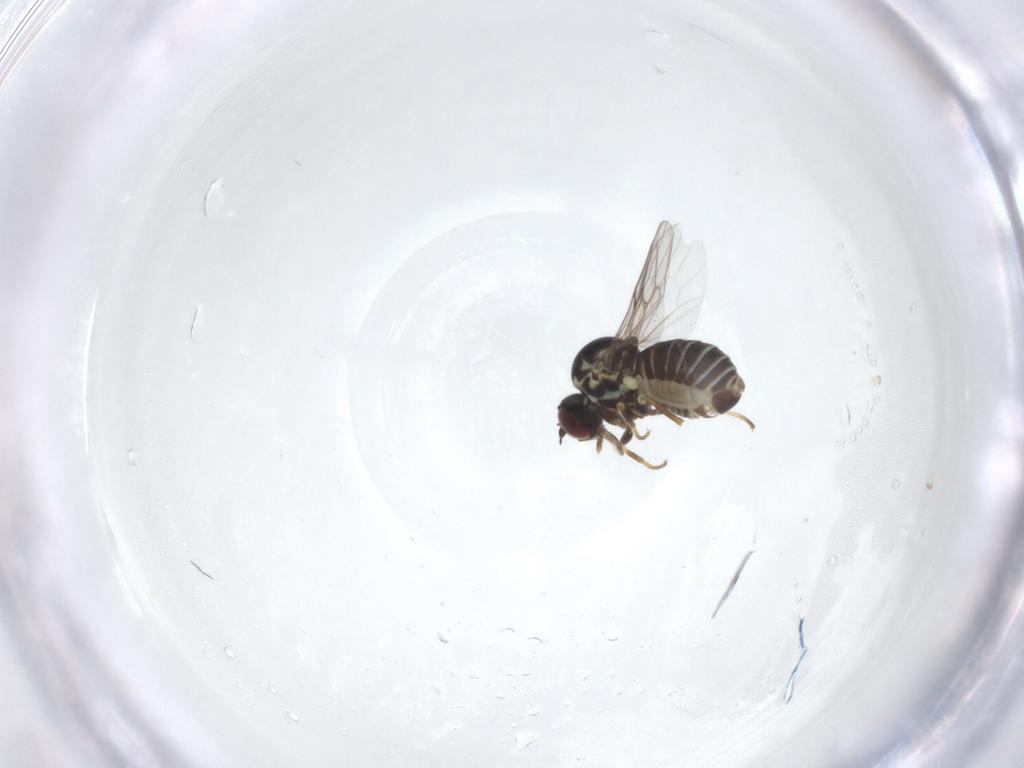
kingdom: Animalia
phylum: Arthropoda
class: Insecta
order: Diptera
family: Mythicomyiidae
